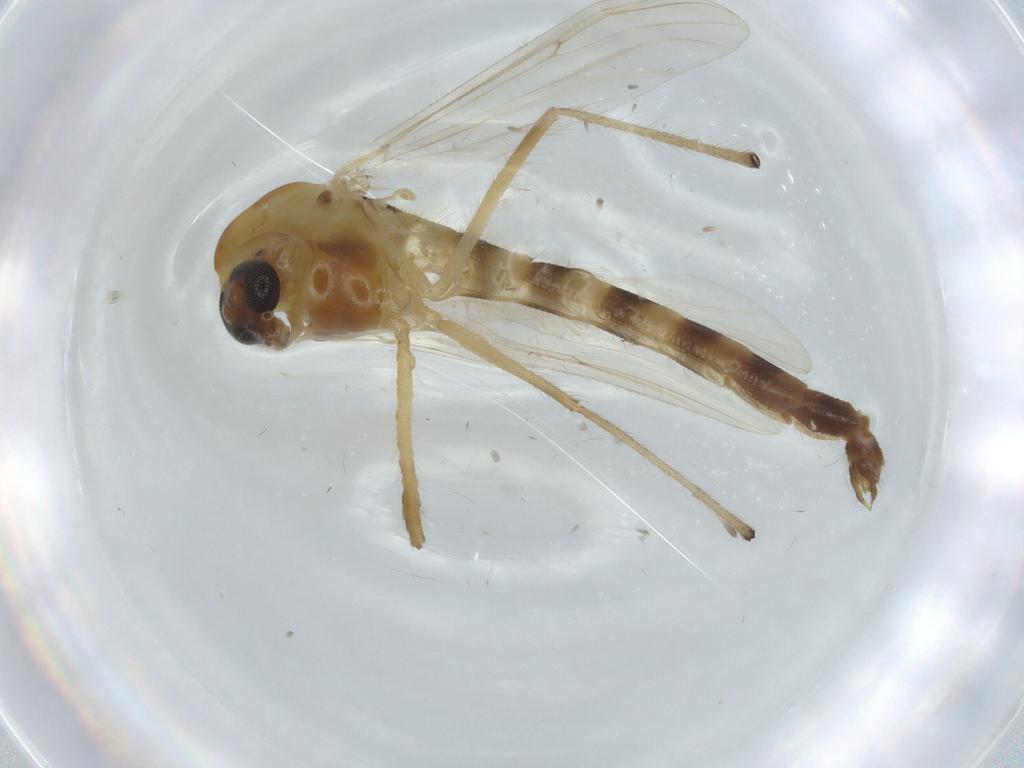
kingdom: Animalia
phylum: Arthropoda
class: Insecta
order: Diptera
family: Chironomidae
